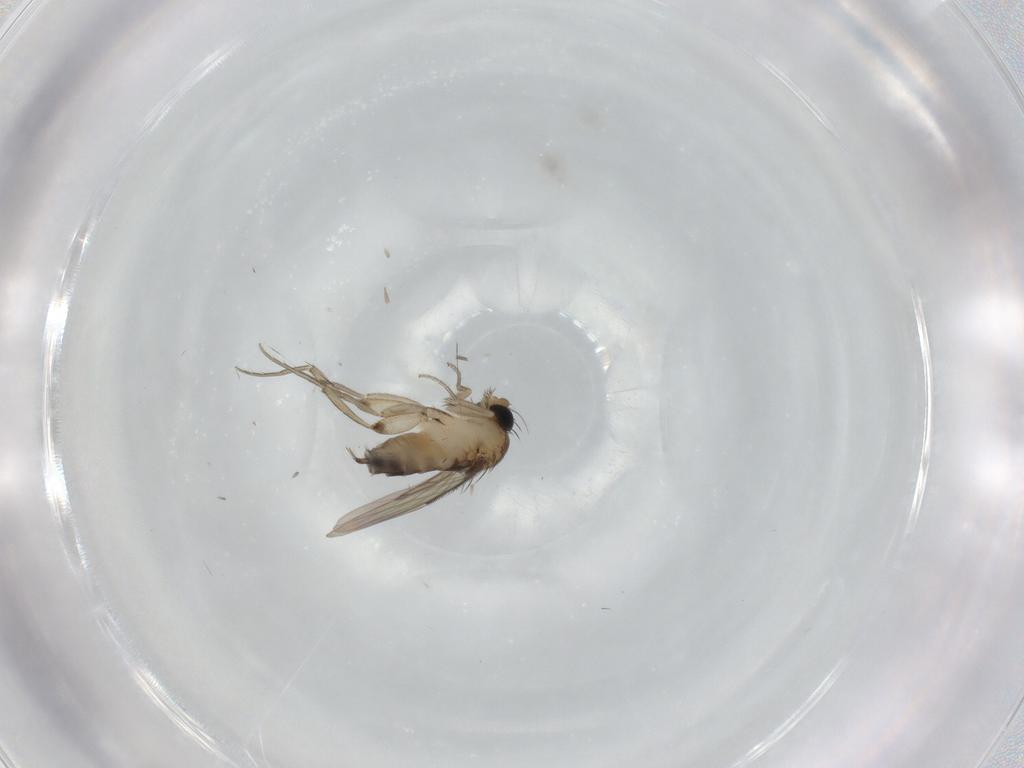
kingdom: Animalia
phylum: Arthropoda
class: Insecta
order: Diptera
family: Phoridae
